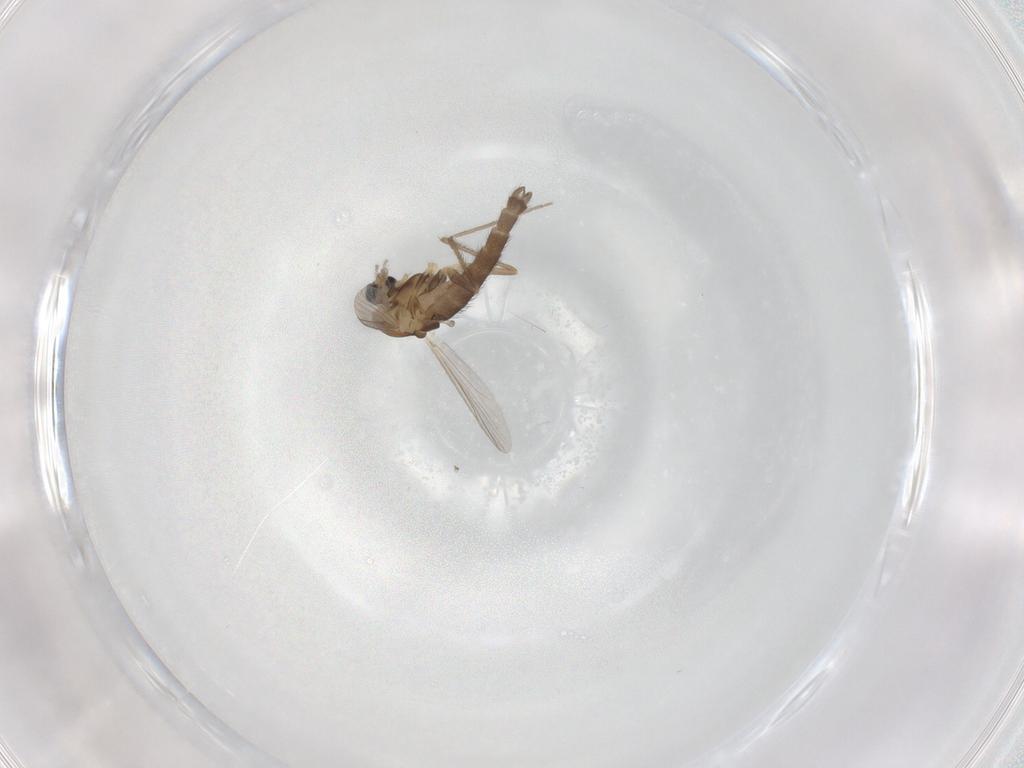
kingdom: Animalia
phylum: Arthropoda
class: Insecta
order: Diptera
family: Chironomidae
